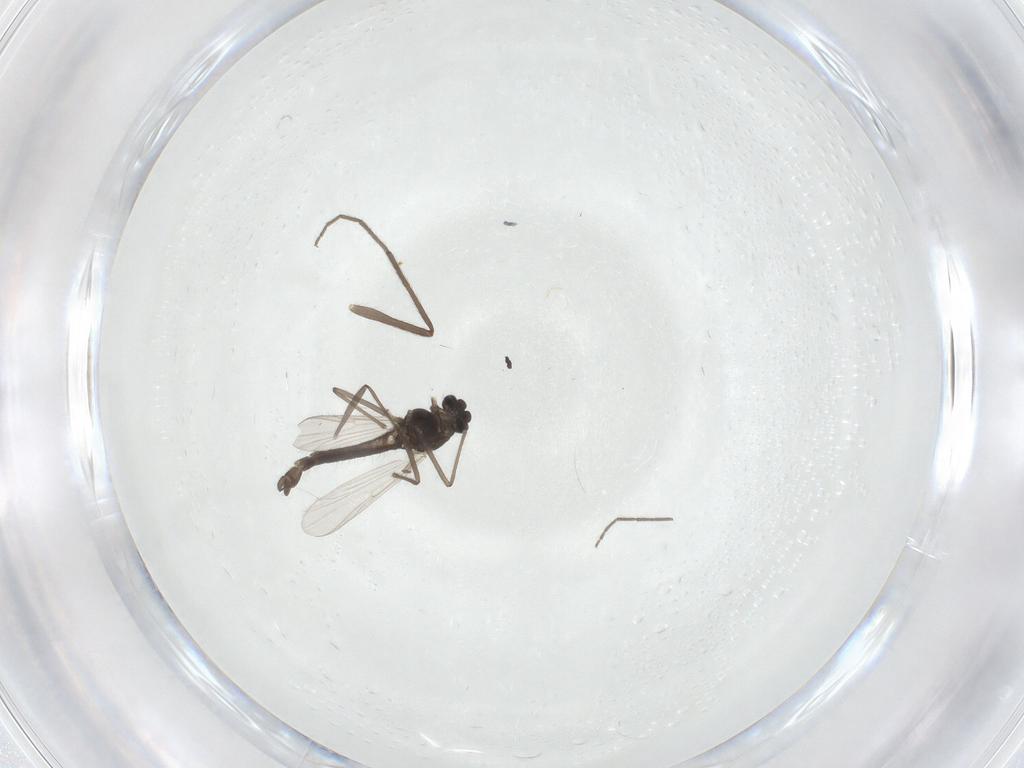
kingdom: Animalia
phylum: Arthropoda
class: Insecta
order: Diptera
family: Chironomidae
